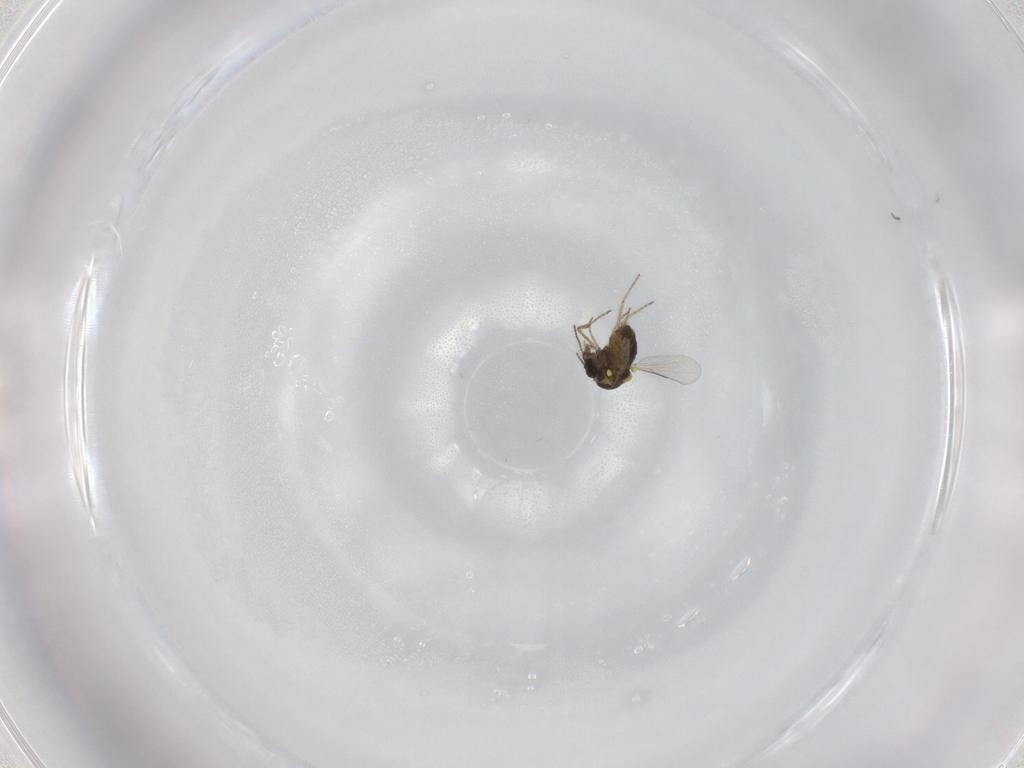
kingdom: Animalia
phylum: Arthropoda
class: Insecta
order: Diptera
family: Ceratopogonidae
